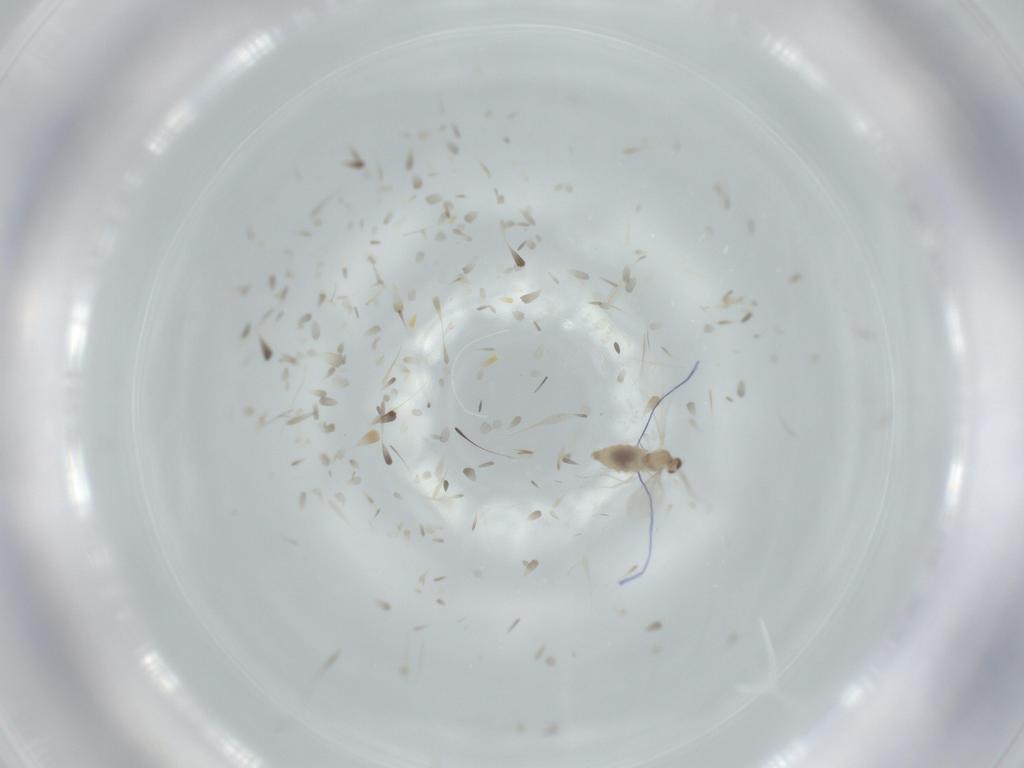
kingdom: Animalia
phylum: Arthropoda
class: Insecta
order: Diptera
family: Cecidomyiidae
